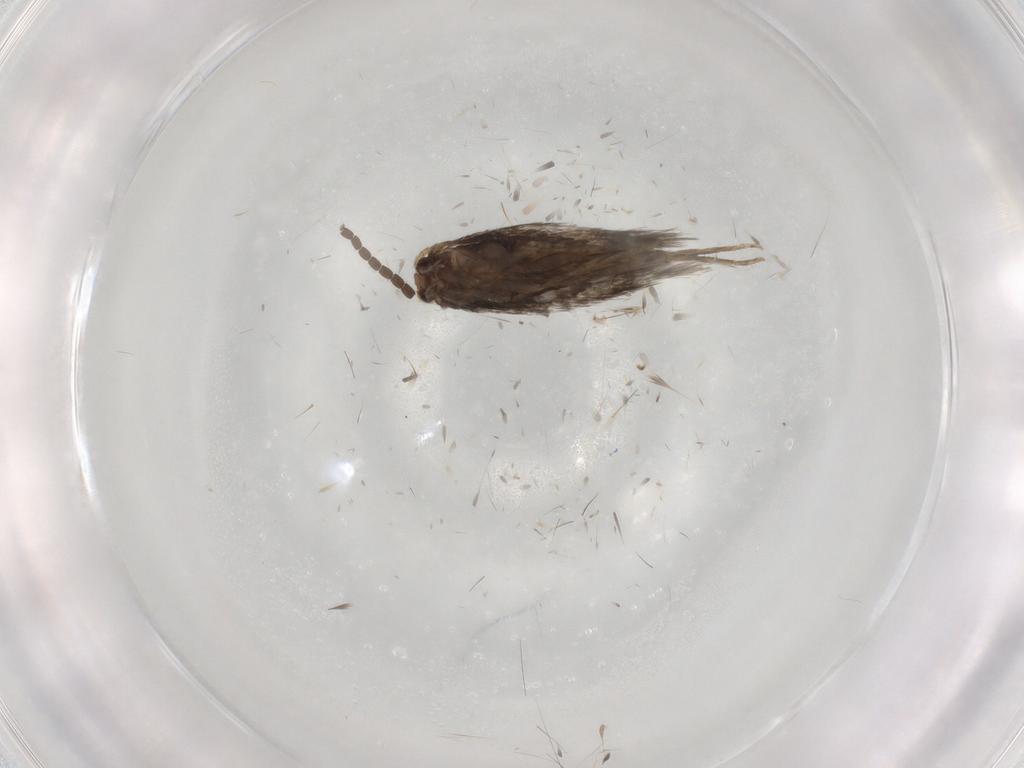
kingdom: Animalia
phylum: Arthropoda
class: Insecta
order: Lepidoptera
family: Nepticulidae
